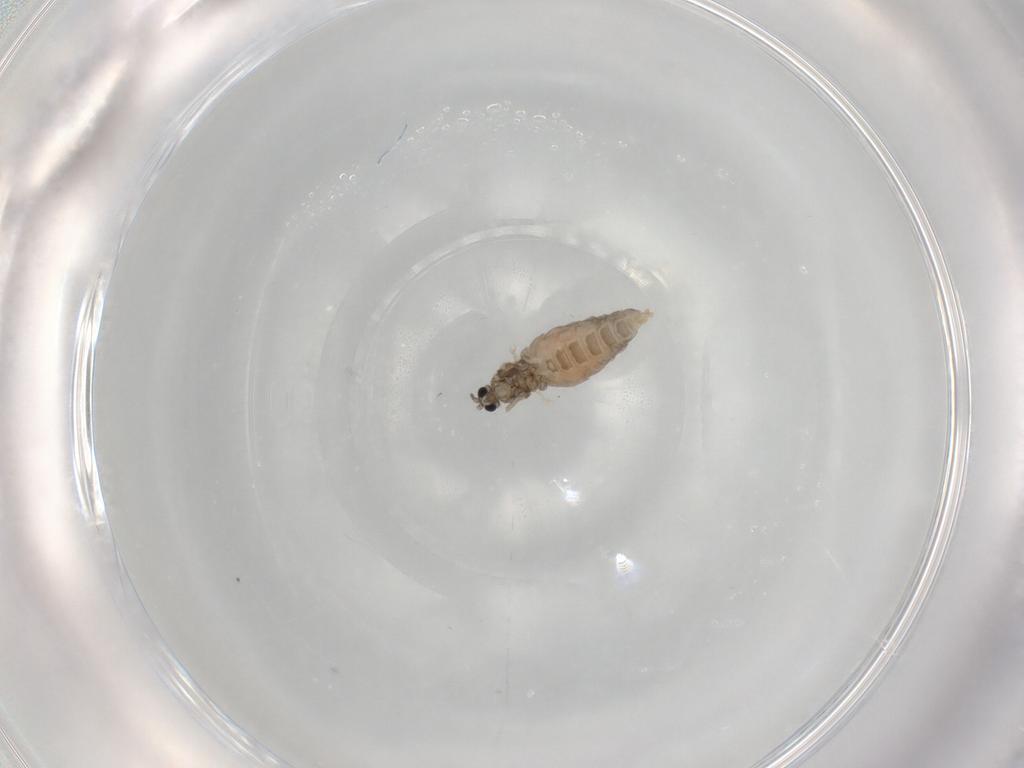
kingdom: Animalia
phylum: Arthropoda
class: Insecta
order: Diptera
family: Cecidomyiidae
